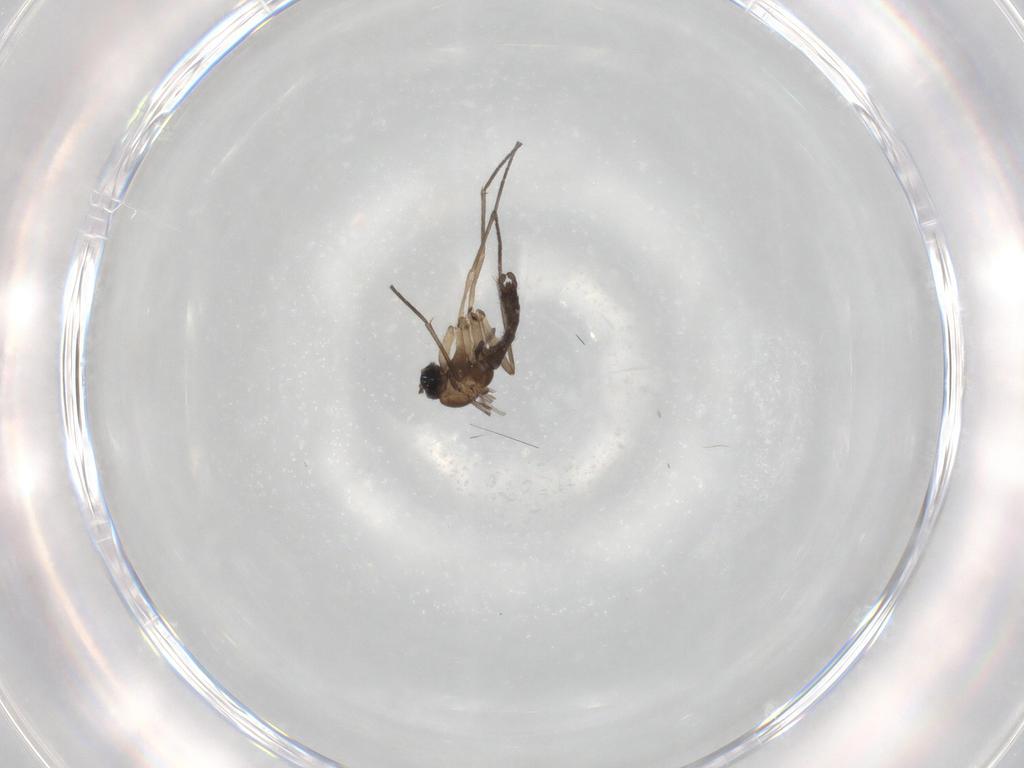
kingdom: Animalia
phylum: Arthropoda
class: Insecta
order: Diptera
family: Sciaridae
